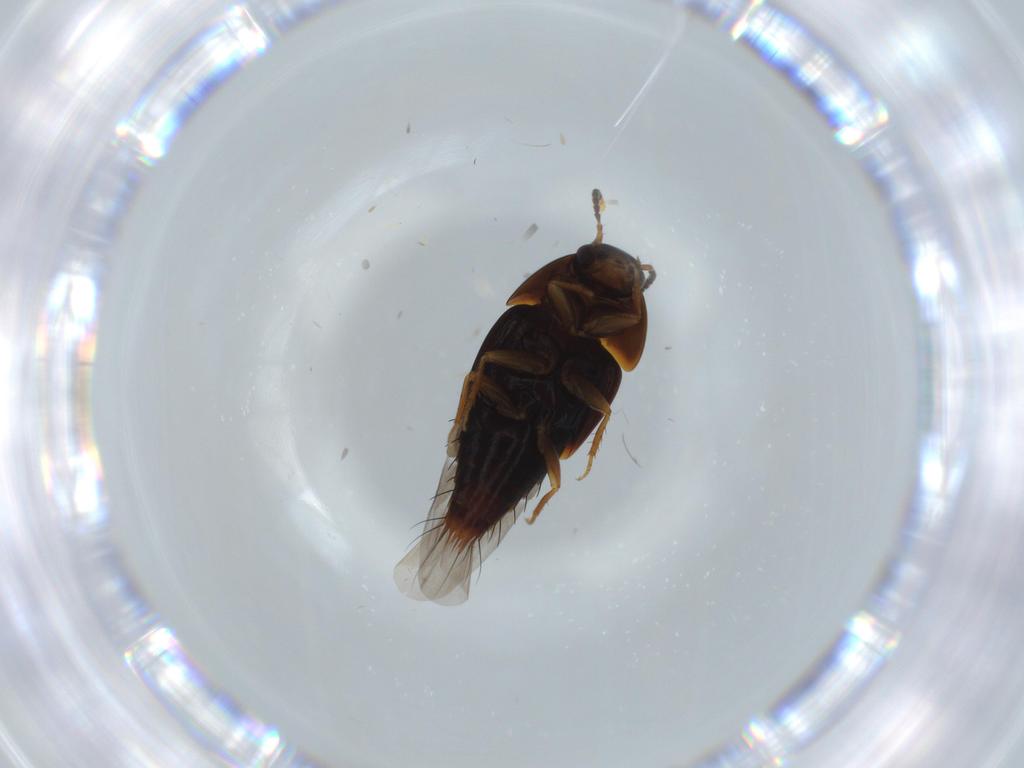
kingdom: Animalia
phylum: Arthropoda
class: Insecta
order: Coleoptera
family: Staphylinidae
